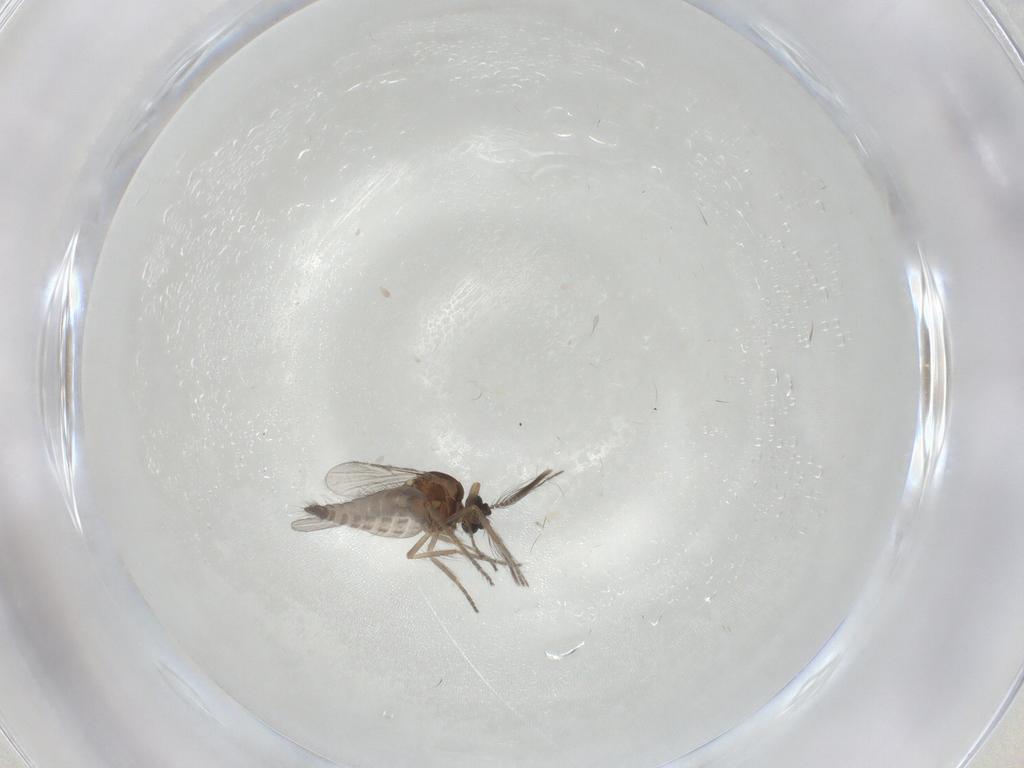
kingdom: Animalia
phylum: Arthropoda
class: Insecta
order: Diptera
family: Ceratopogonidae
